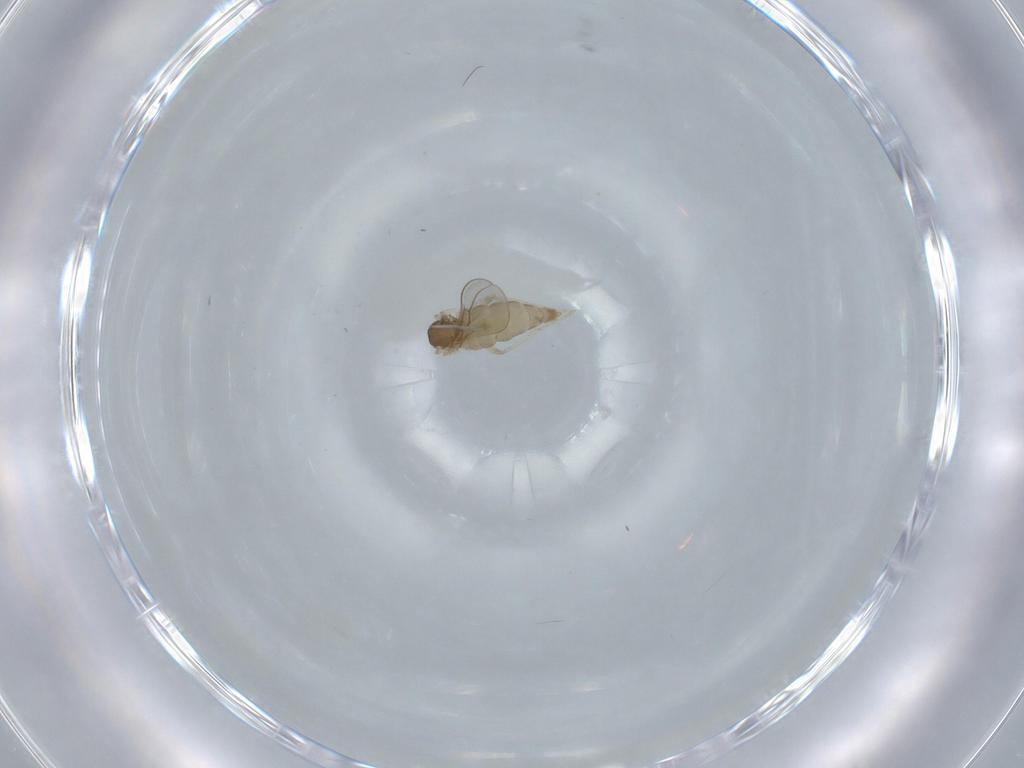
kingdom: Animalia
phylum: Arthropoda
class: Insecta
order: Diptera
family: Cecidomyiidae
